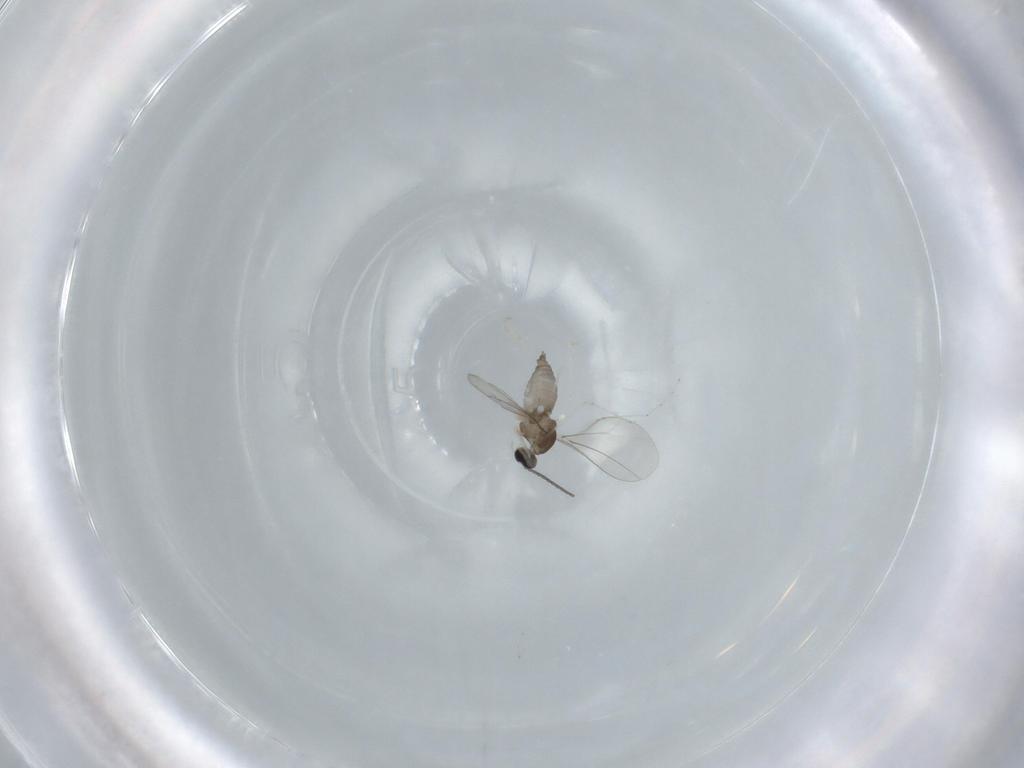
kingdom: Animalia
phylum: Arthropoda
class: Insecta
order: Diptera
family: Cecidomyiidae
